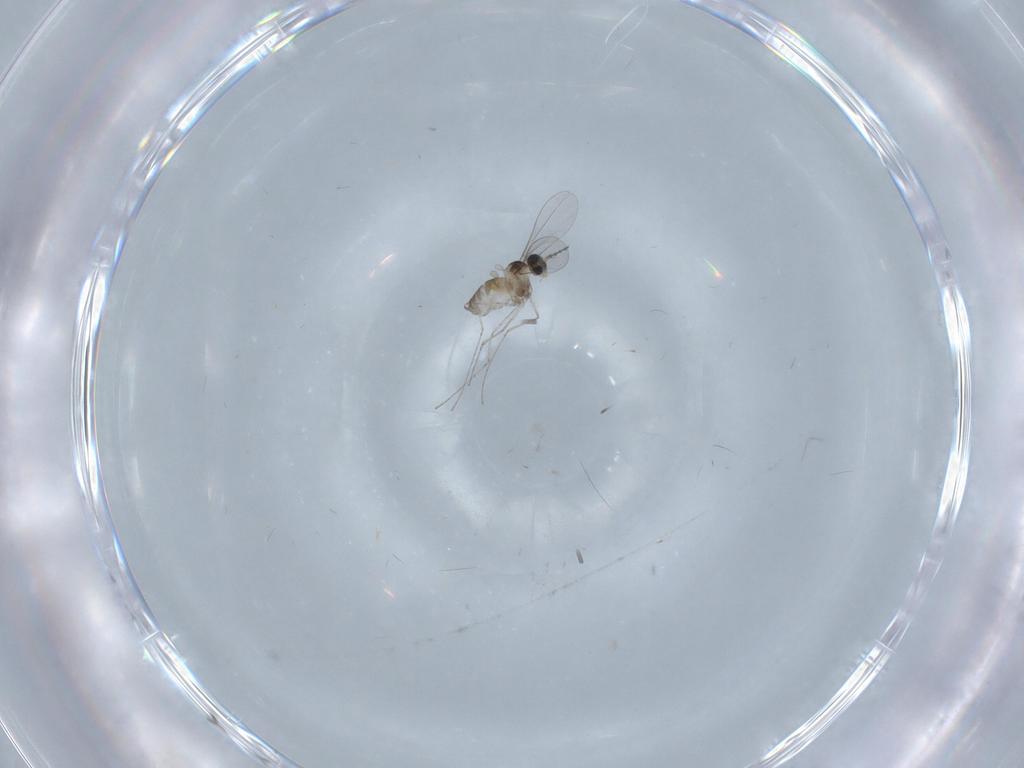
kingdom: Animalia
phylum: Arthropoda
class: Insecta
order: Diptera
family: Cecidomyiidae
